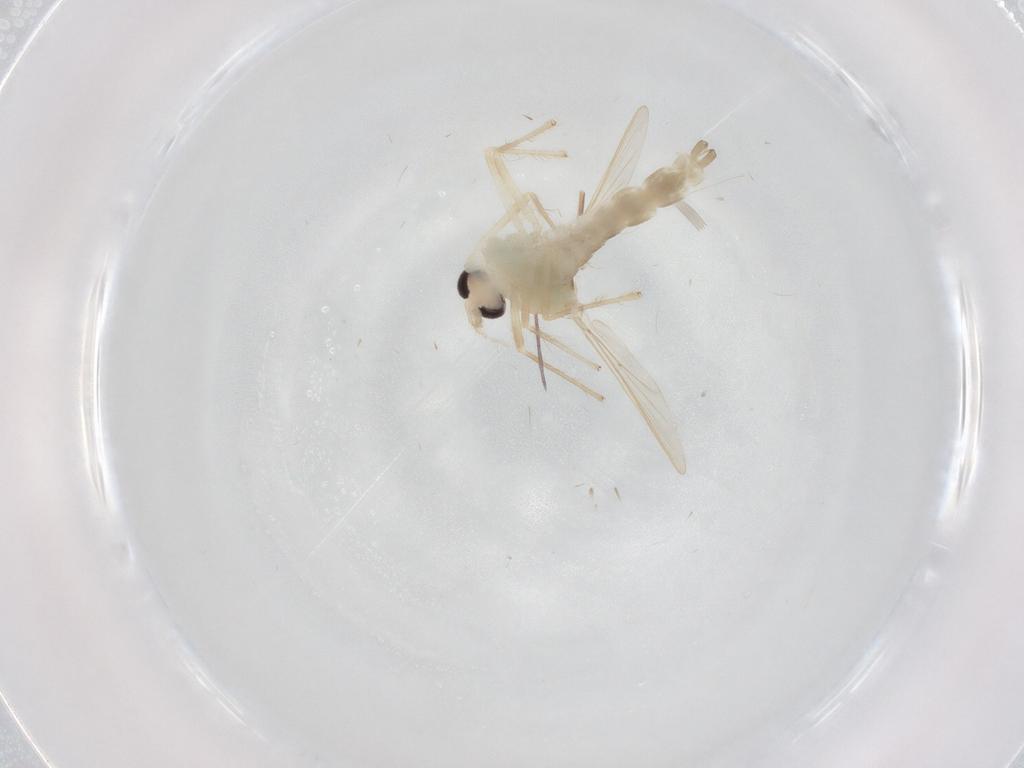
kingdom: Animalia
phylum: Arthropoda
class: Insecta
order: Diptera
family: Chironomidae
